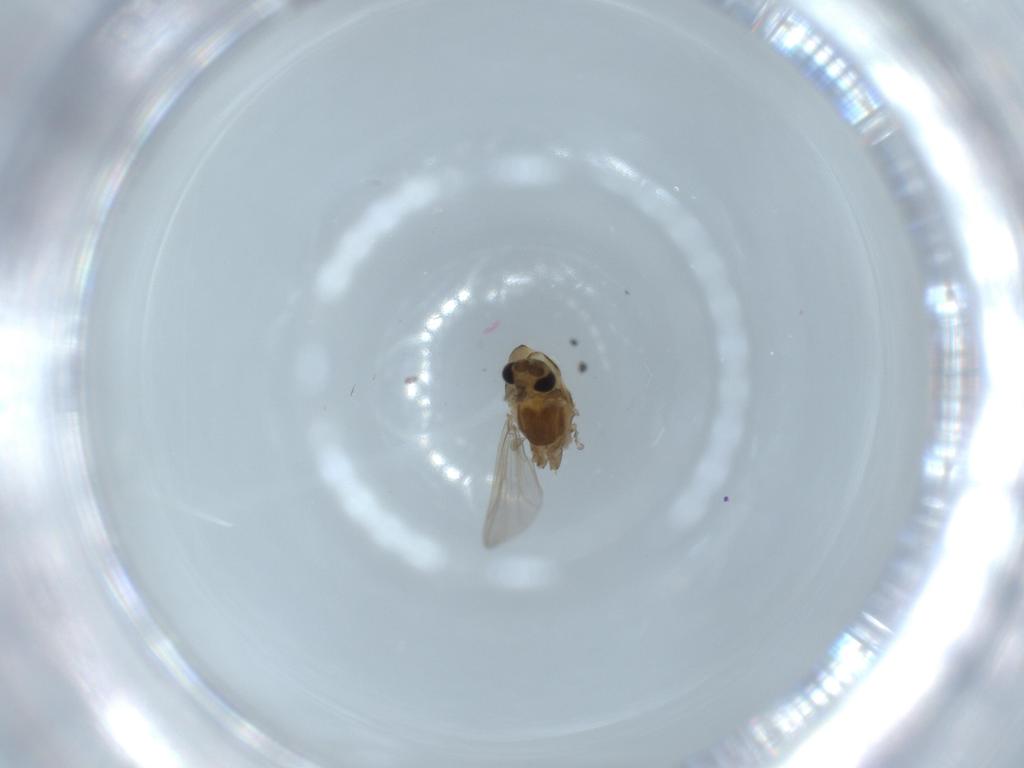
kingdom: Animalia
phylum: Arthropoda
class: Insecta
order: Diptera
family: Chironomidae
